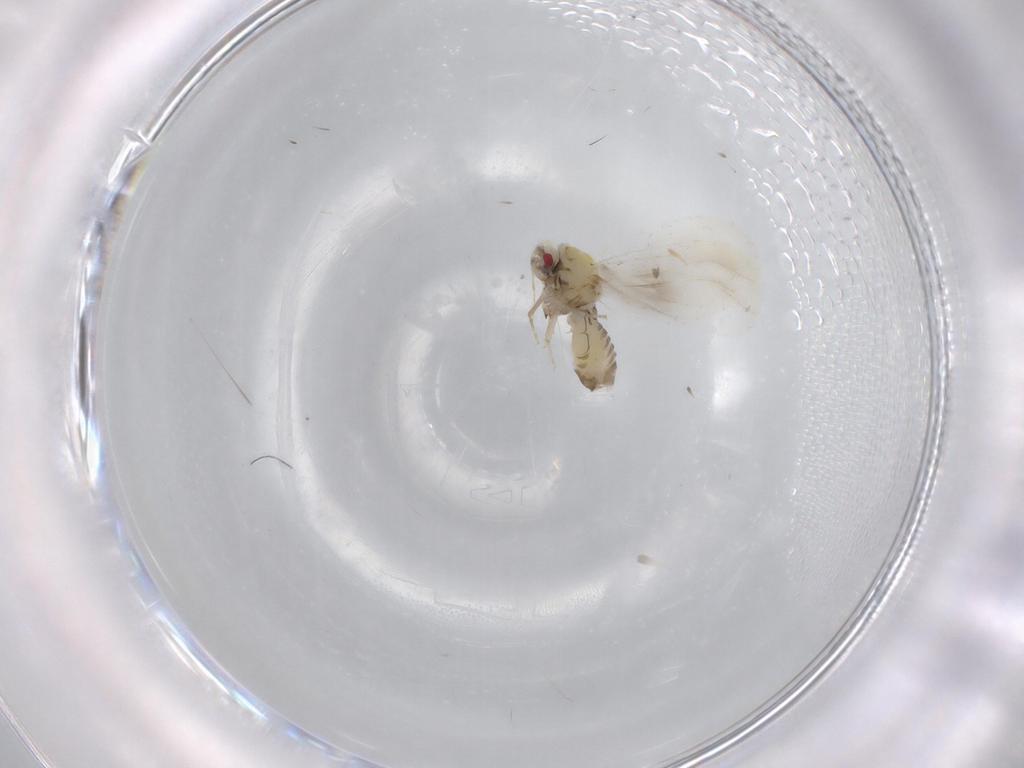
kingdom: Animalia
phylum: Arthropoda
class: Insecta
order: Hemiptera
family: Aleyrodidae
